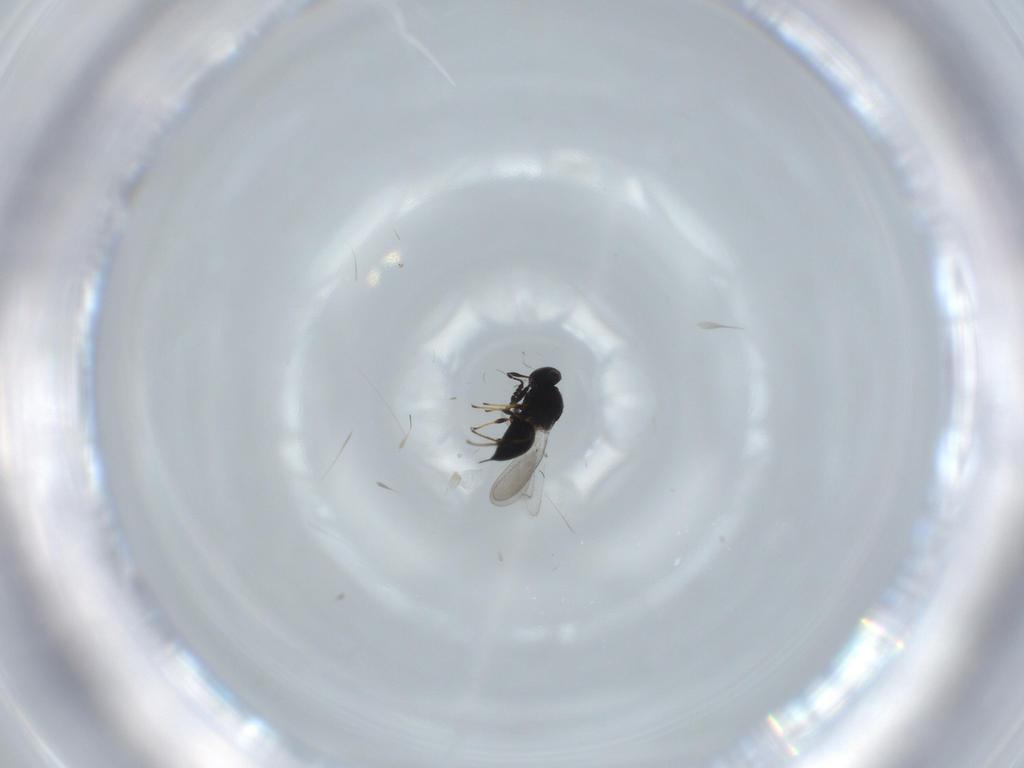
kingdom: Animalia
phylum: Arthropoda
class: Insecta
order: Hymenoptera
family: Platygastridae
